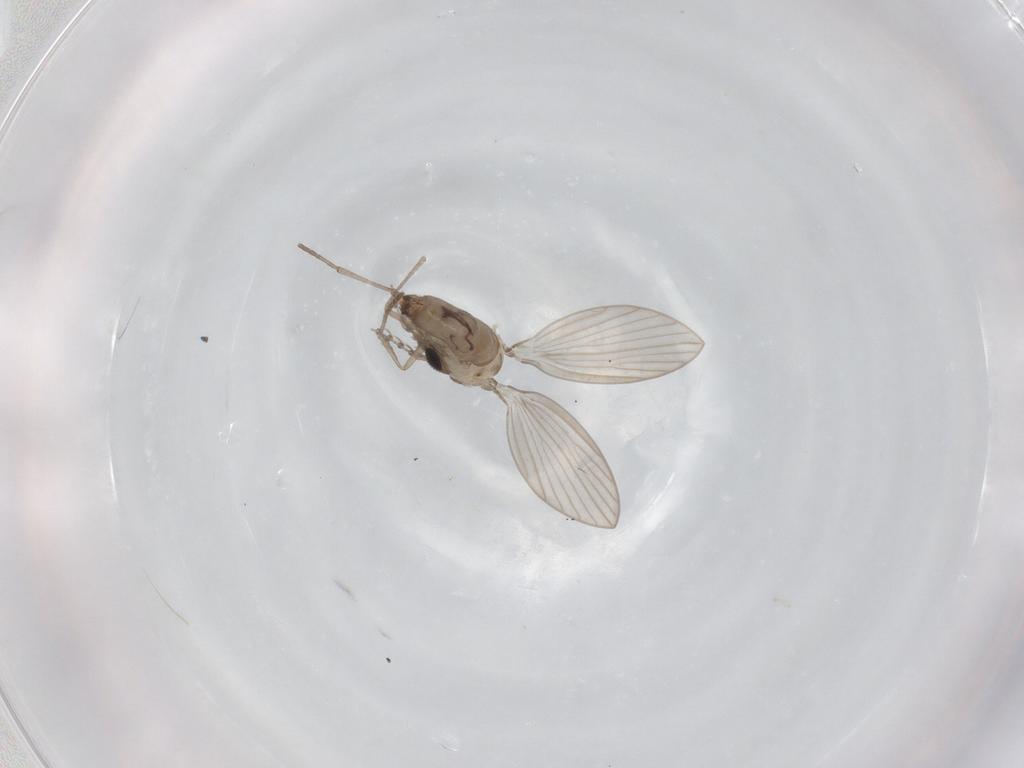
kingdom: Animalia
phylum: Arthropoda
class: Insecta
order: Diptera
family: Psychodidae
